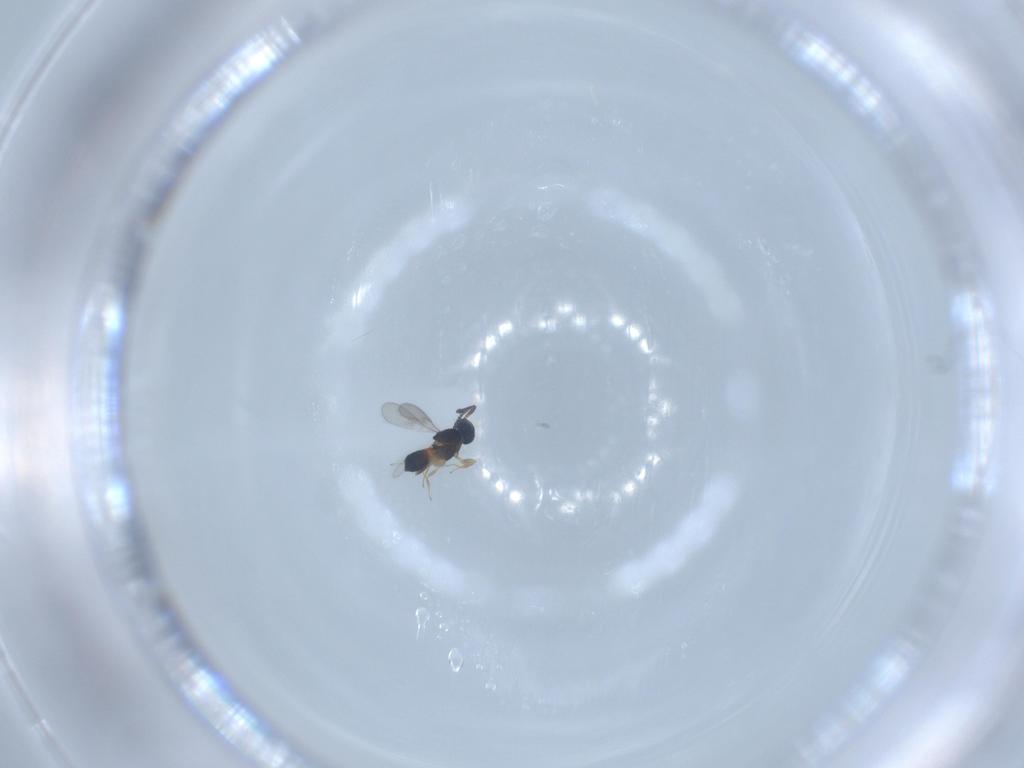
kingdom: Animalia
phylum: Arthropoda
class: Insecta
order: Hymenoptera
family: Scelionidae
